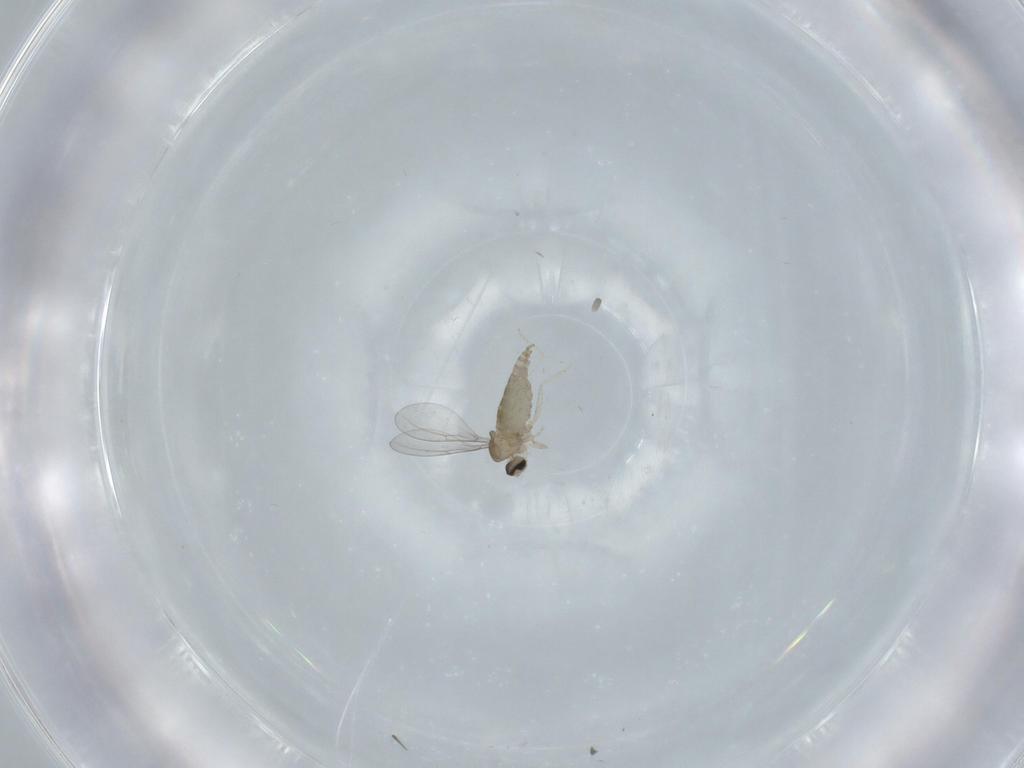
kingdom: Animalia
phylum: Arthropoda
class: Insecta
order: Diptera
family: Cecidomyiidae
